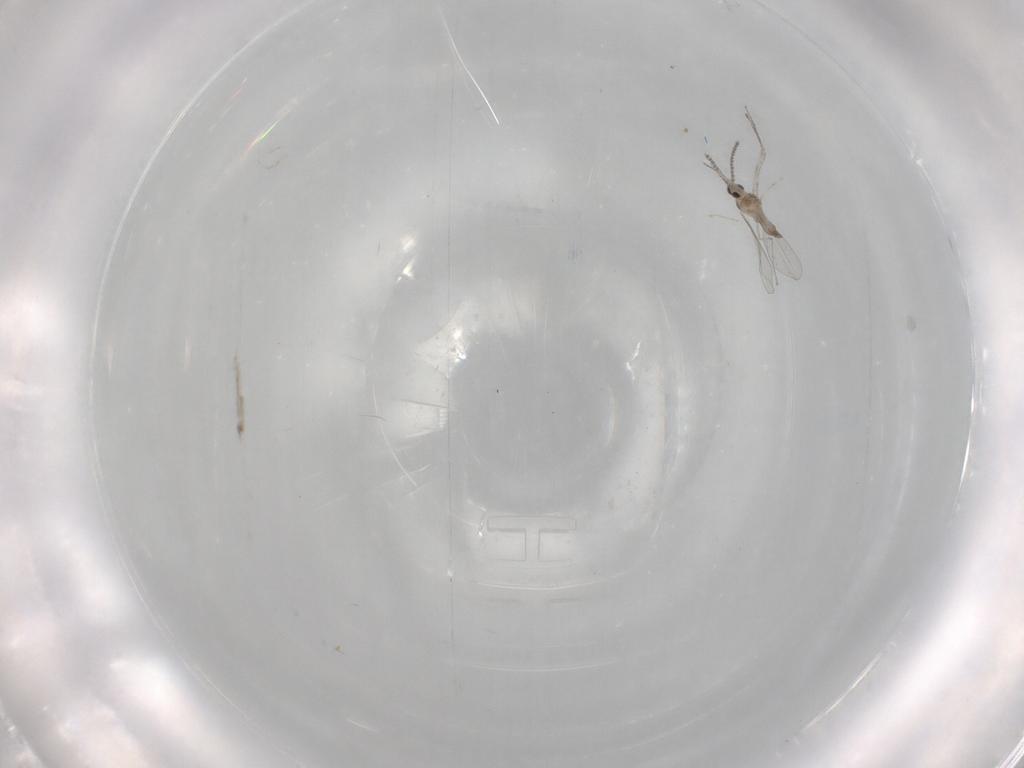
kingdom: Animalia
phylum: Arthropoda
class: Insecta
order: Diptera
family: Cecidomyiidae
